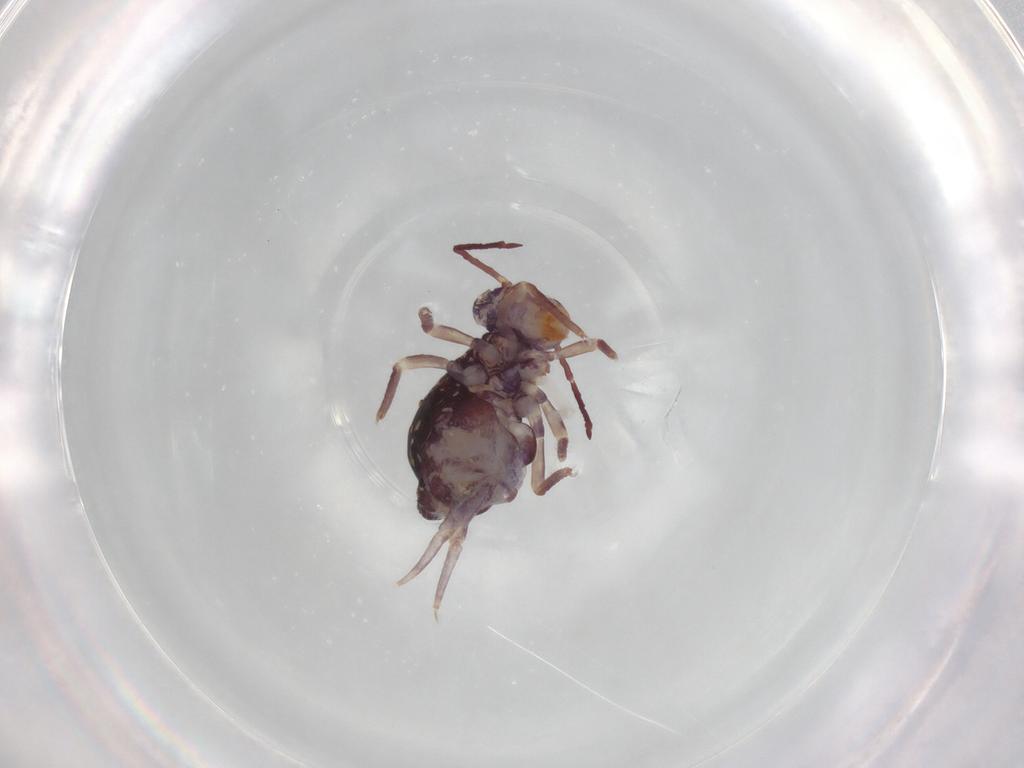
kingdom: Animalia
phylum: Arthropoda
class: Collembola
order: Symphypleona
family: Dicyrtomidae
